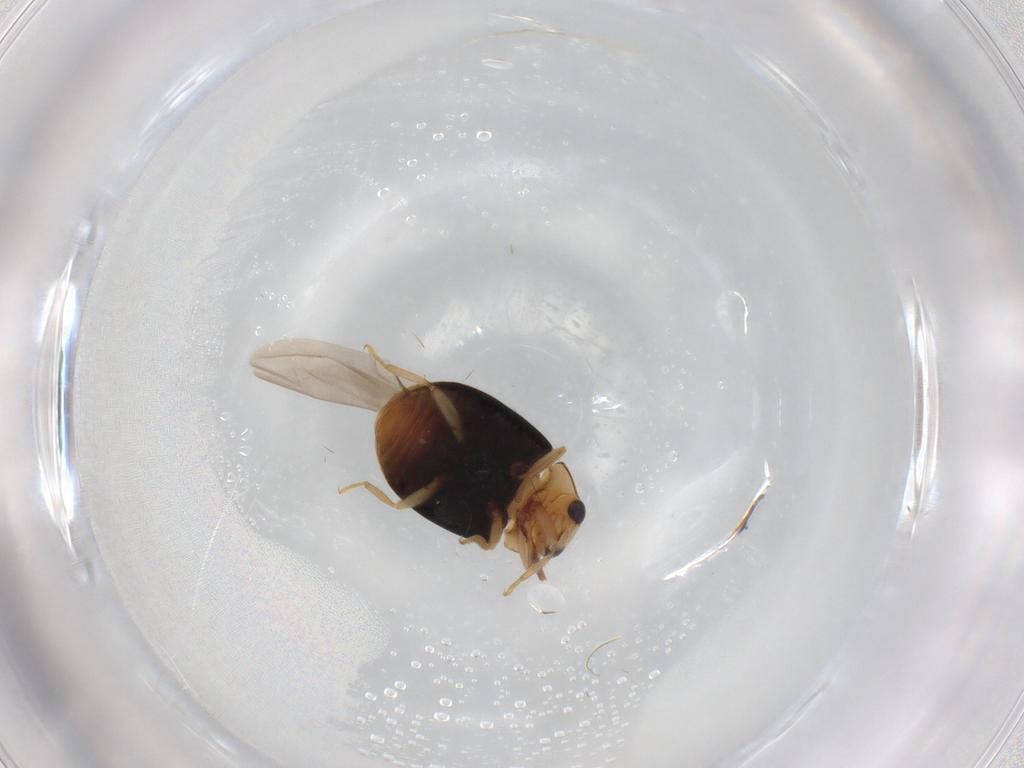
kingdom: Animalia
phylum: Arthropoda
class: Insecta
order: Coleoptera
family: Coccinellidae
